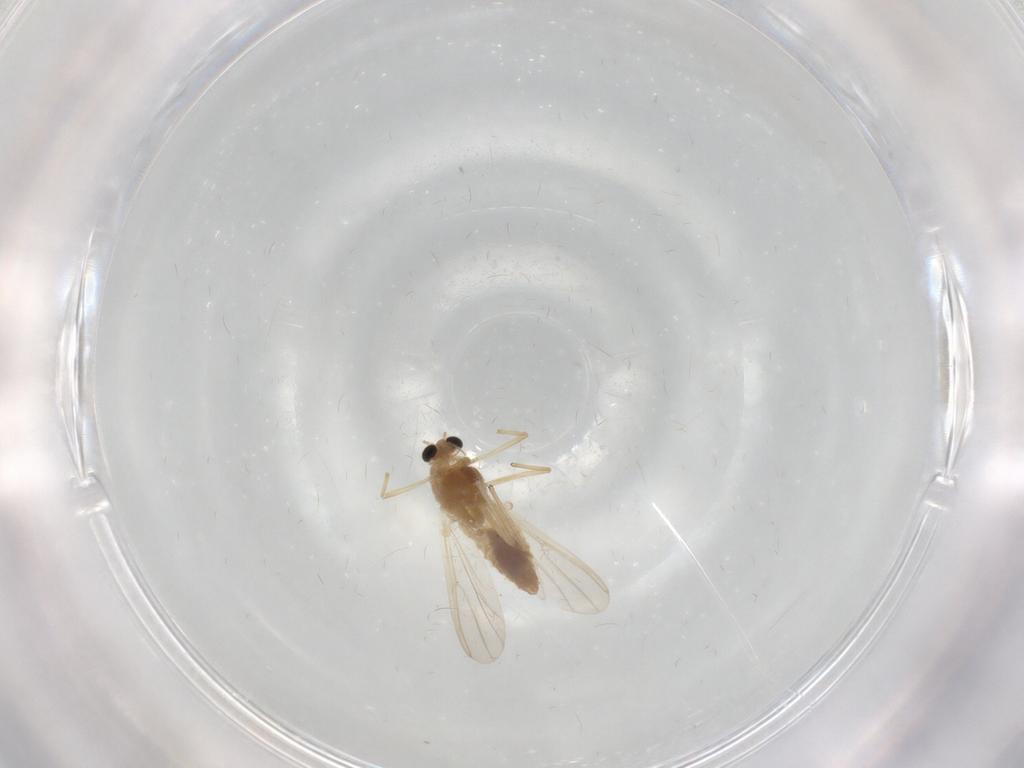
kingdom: Animalia
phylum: Arthropoda
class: Insecta
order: Diptera
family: Chironomidae
